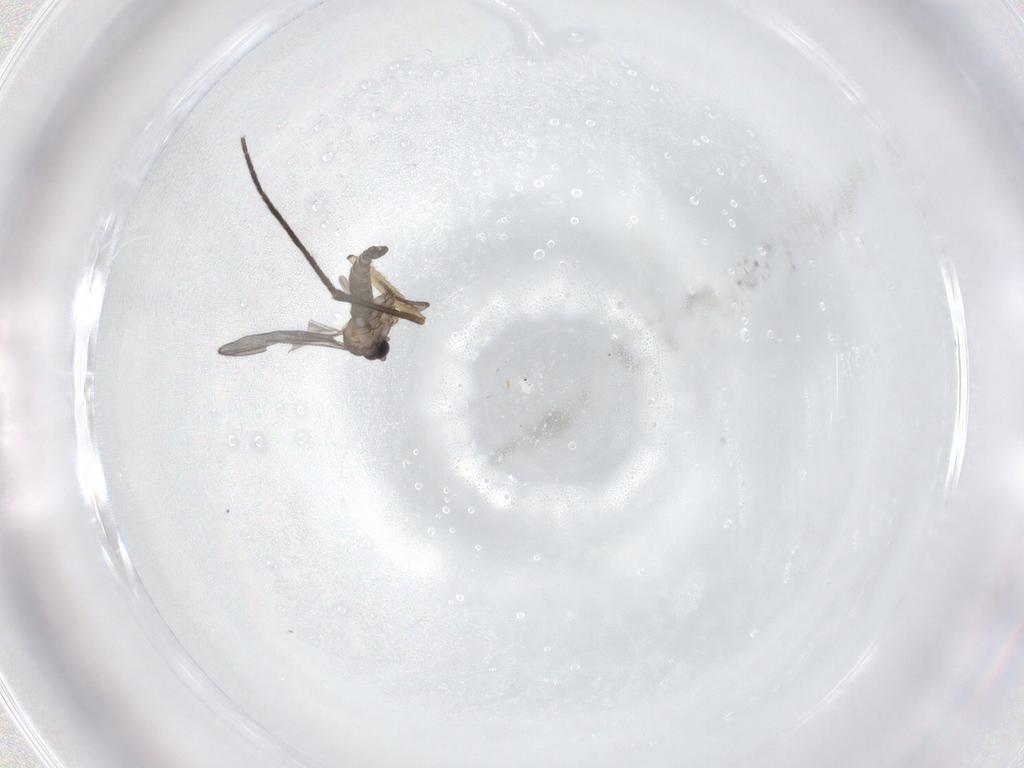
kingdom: Animalia
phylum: Arthropoda
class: Insecta
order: Diptera
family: Sciaridae
